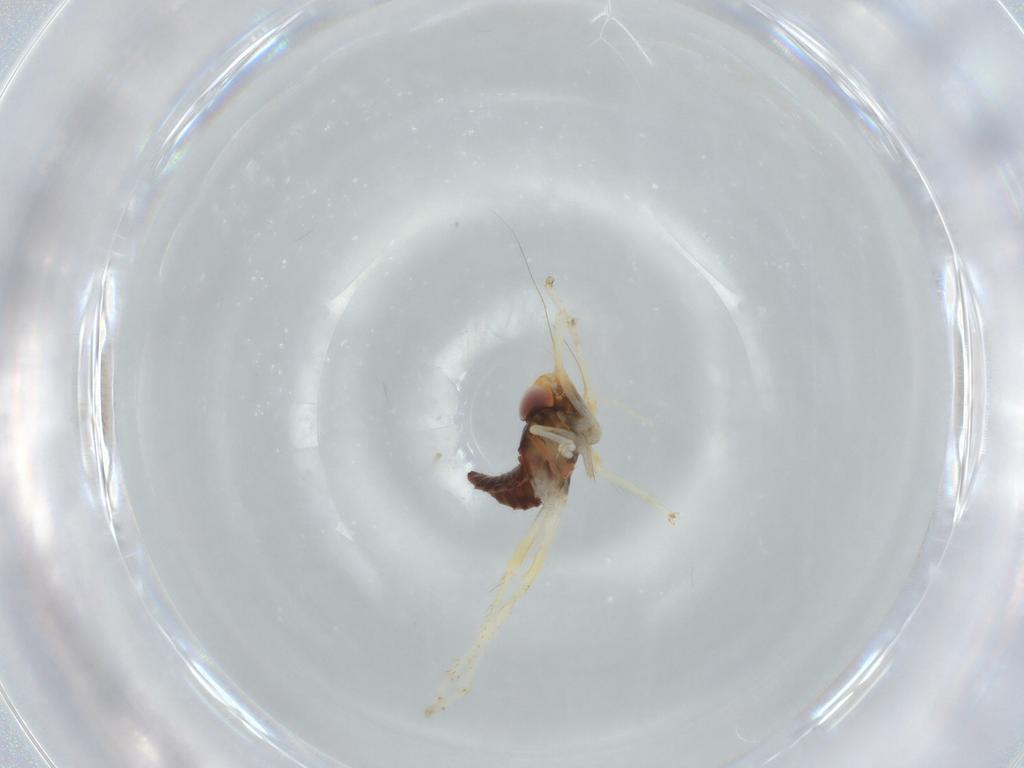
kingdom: Animalia
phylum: Arthropoda
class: Insecta
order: Hemiptera
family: Cicadellidae
